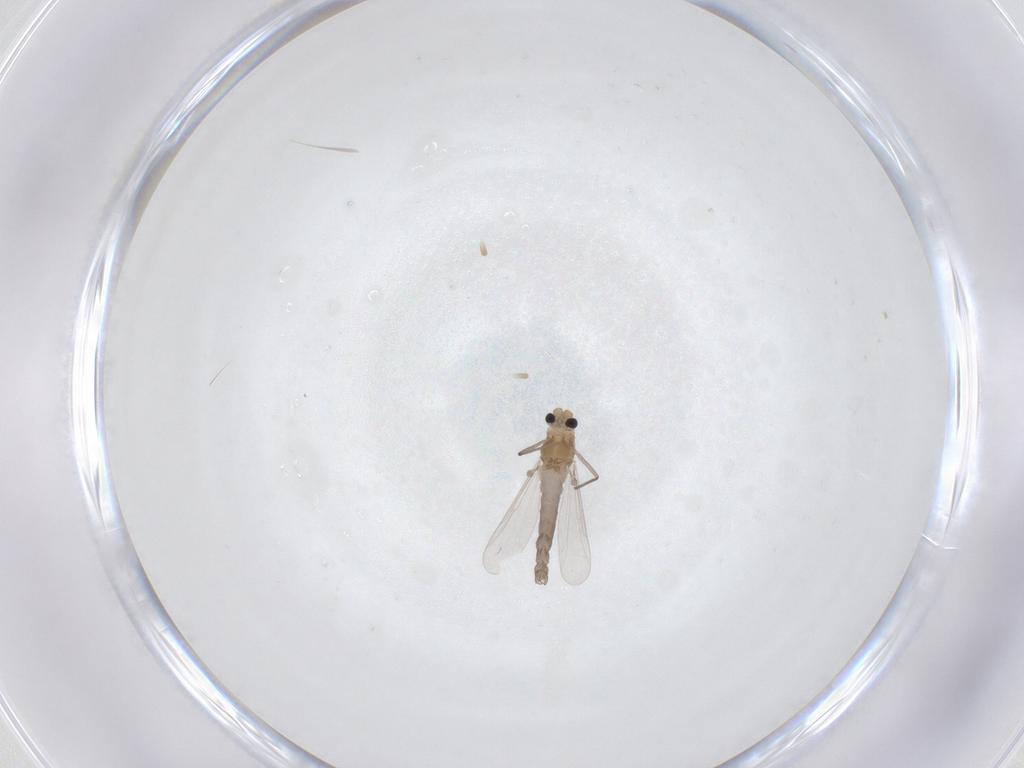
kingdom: Animalia
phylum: Arthropoda
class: Insecta
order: Diptera
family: Chironomidae
